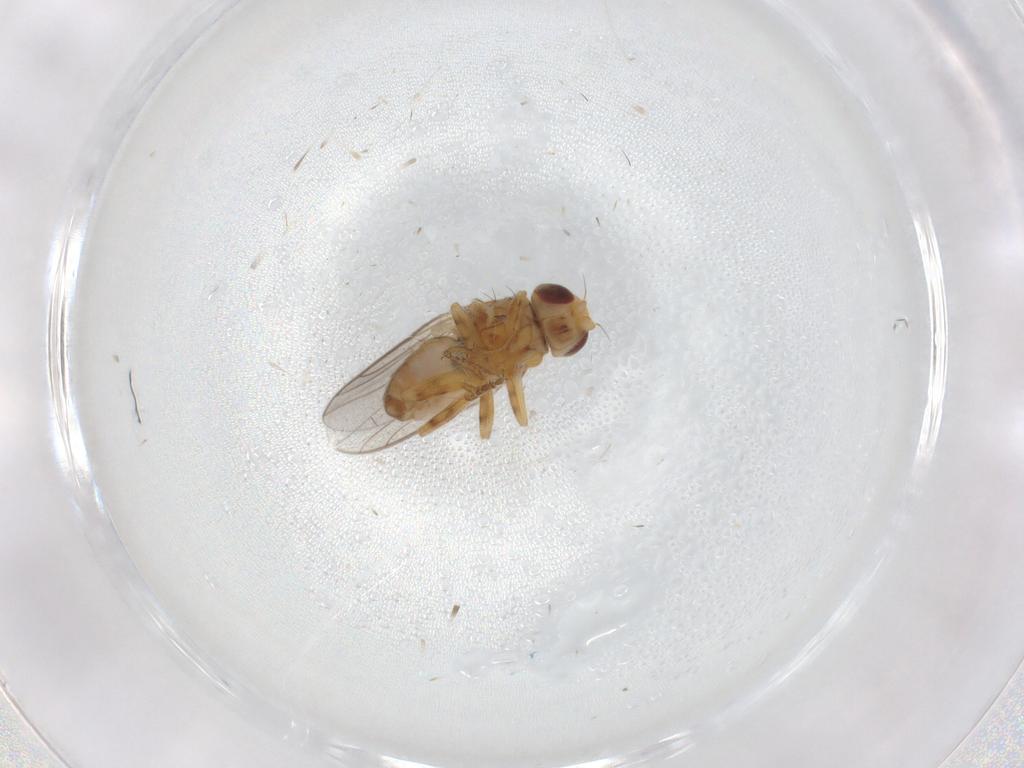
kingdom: Animalia
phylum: Arthropoda
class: Insecta
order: Diptera
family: Chloropidae
